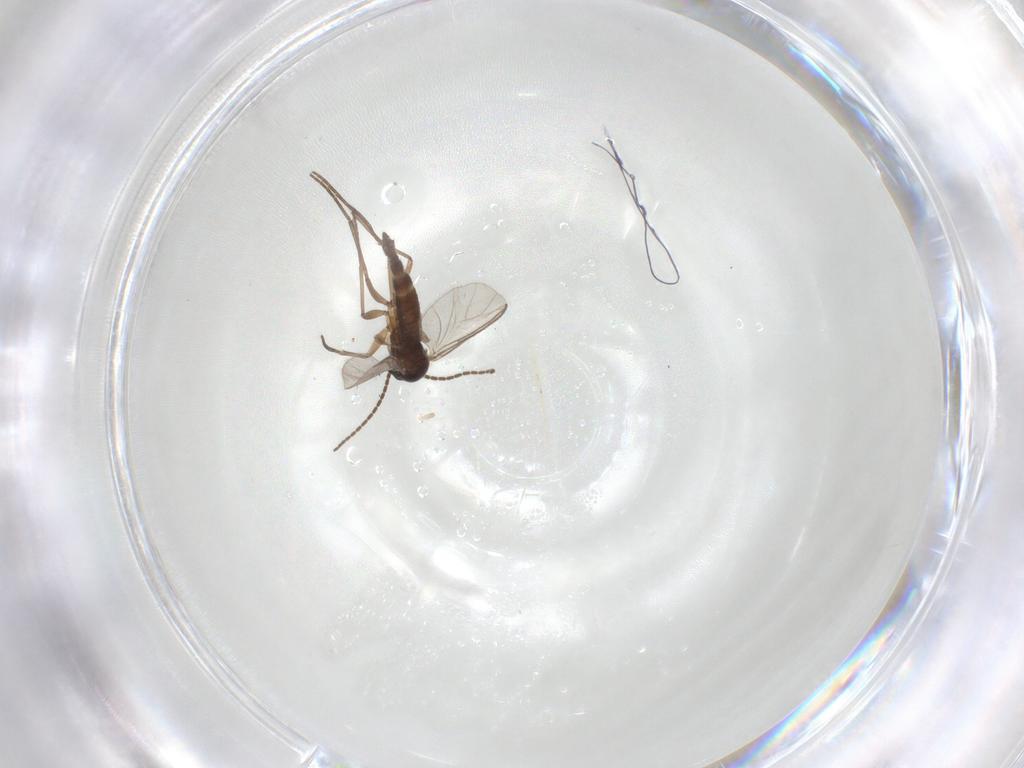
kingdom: Animalia
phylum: Arthropoda
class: Insecta
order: Diptera
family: Sciaridae
